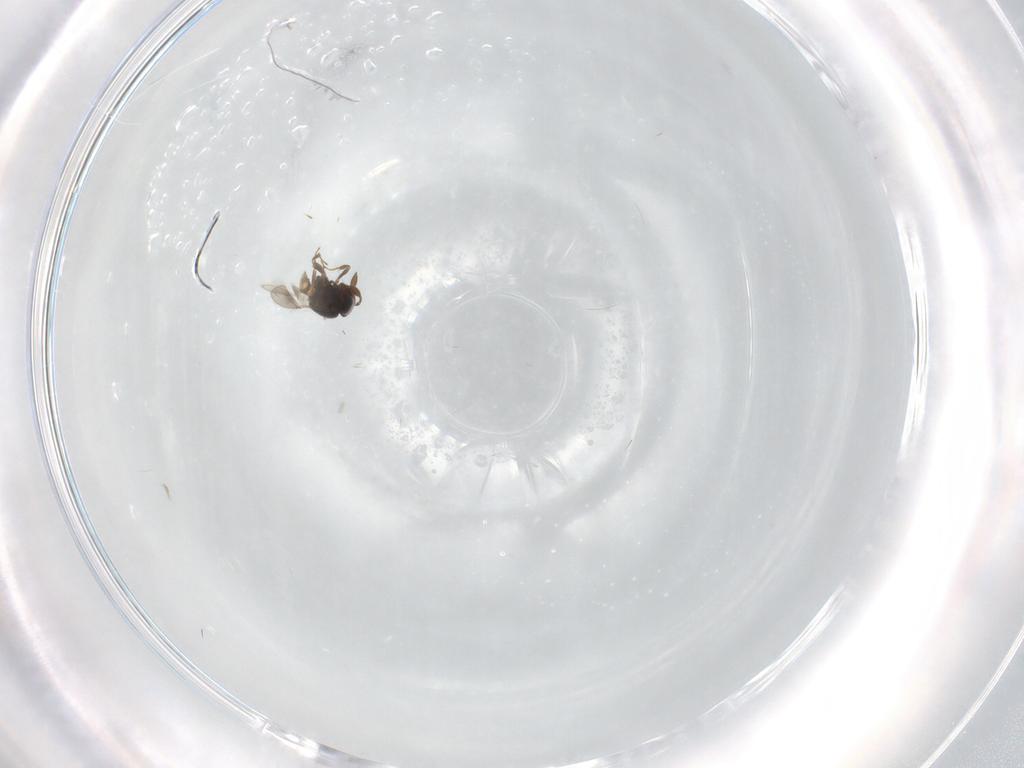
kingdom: Animalia
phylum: Arthropoda
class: Insecta
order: Hymenoptera
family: Scelionidae
